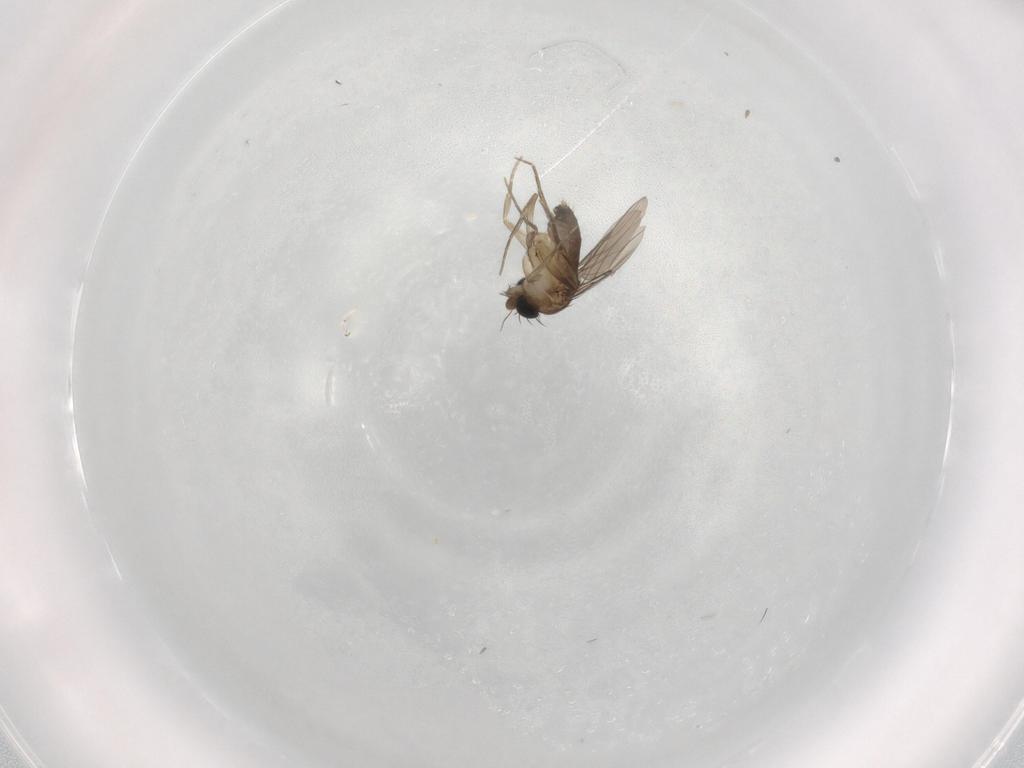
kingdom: Animalia
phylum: Arthropoda
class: Insecta
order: Diptera
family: Phoridae
